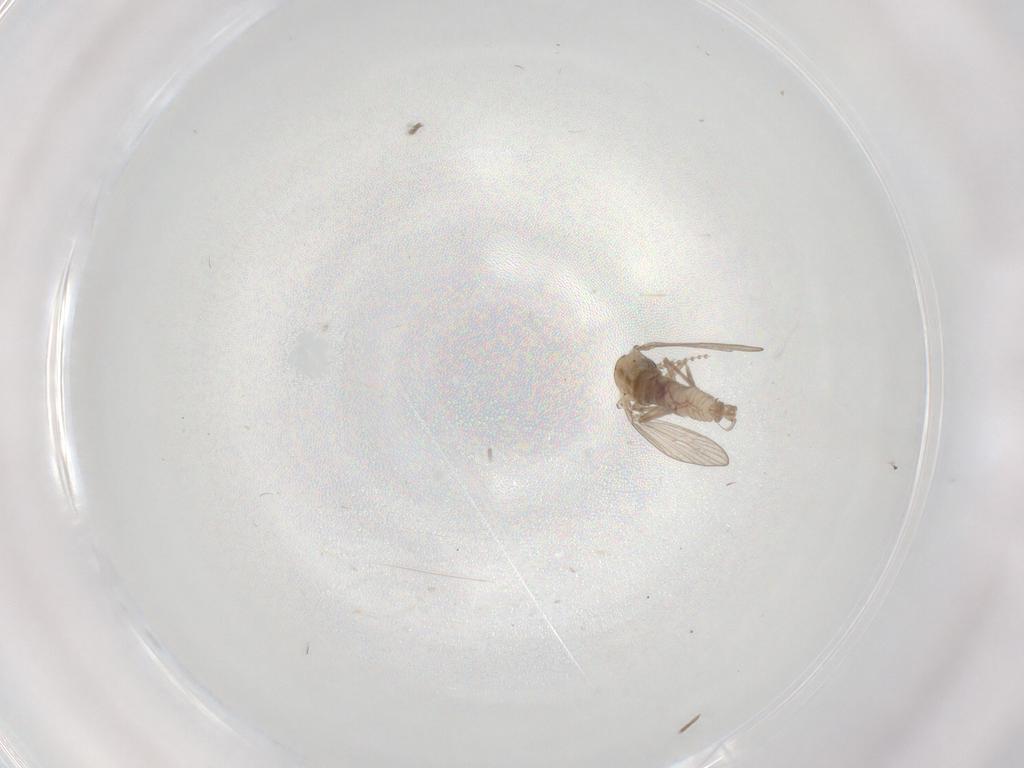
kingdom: Animalia
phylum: Arthropoda
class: Insecta
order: Diptera
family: Psychodidae
